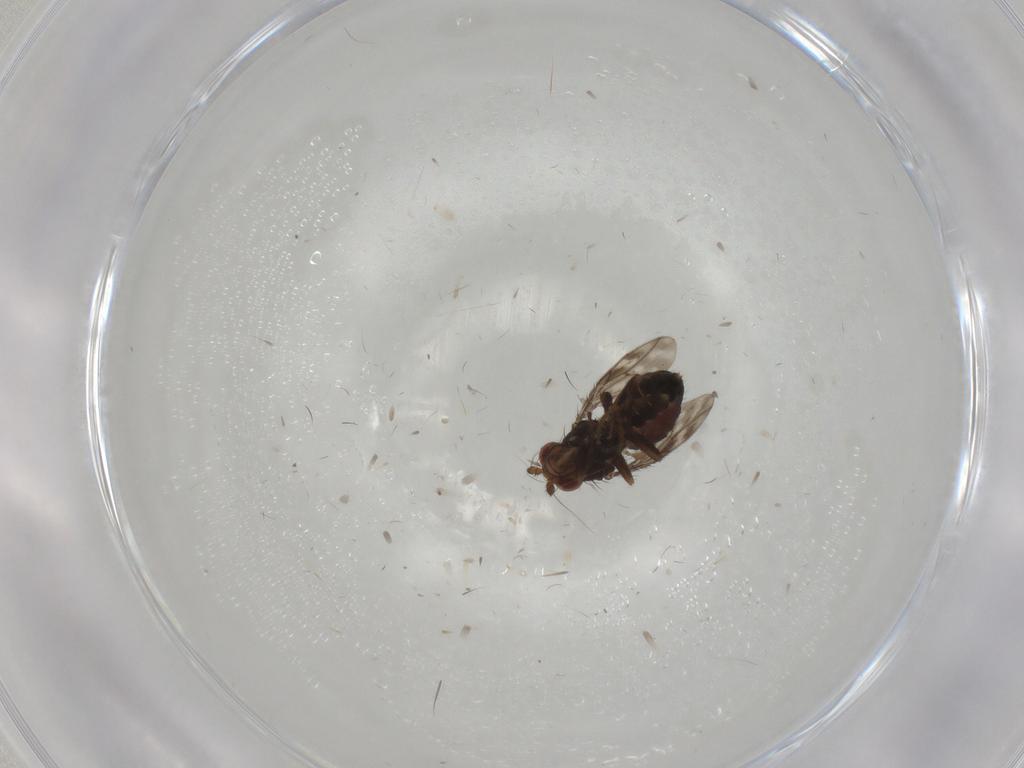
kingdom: Animalia
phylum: Arthropoda
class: Insecta
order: Diptera
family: Sphaeroceridae
